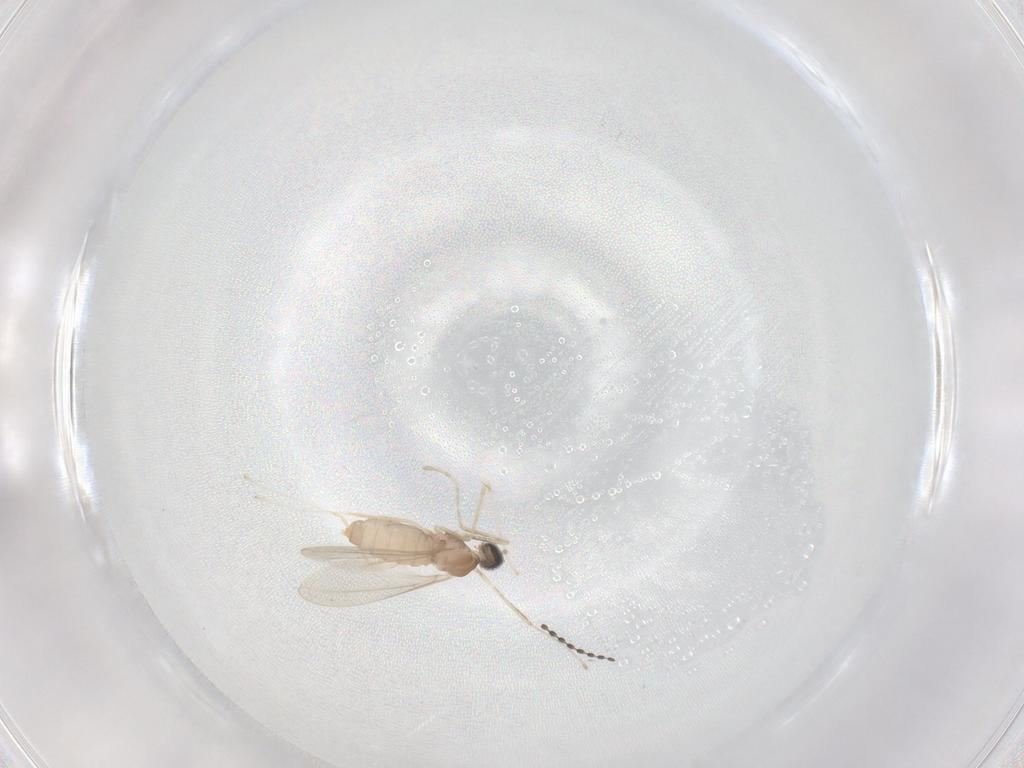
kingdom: Animalia
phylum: Arthropoda
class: Insecta
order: Diptera
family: Cecidomyiidae
